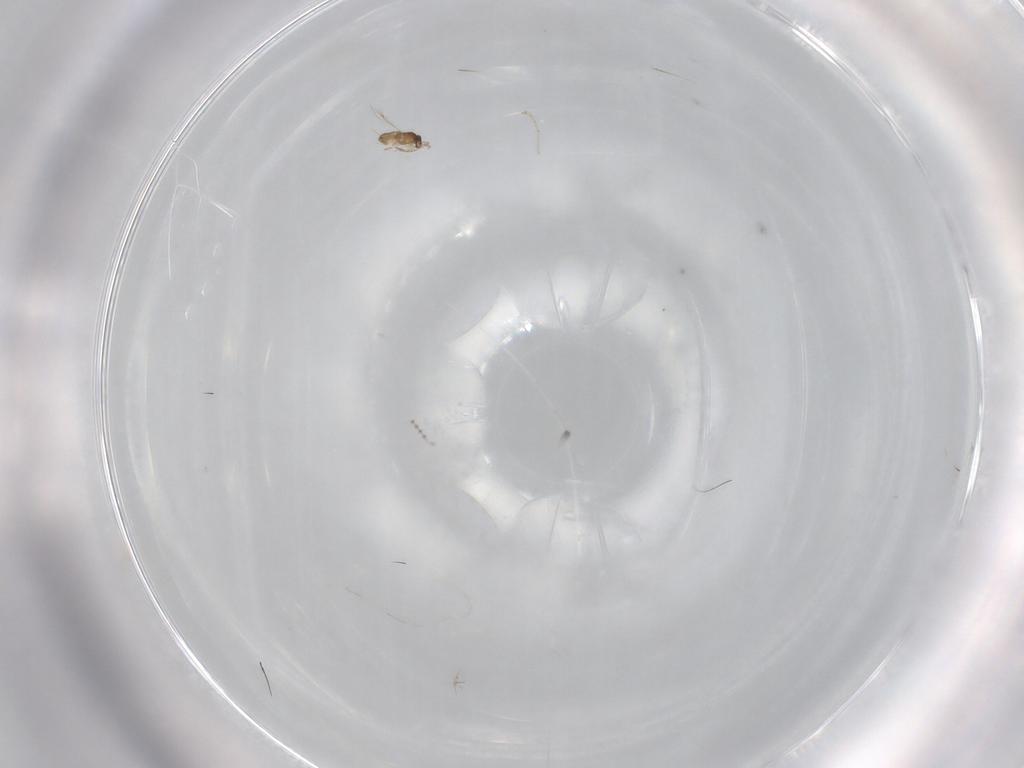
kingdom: Animalia
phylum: Arthropoda
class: Insecta
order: Hymenoptera
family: Mymaridae
